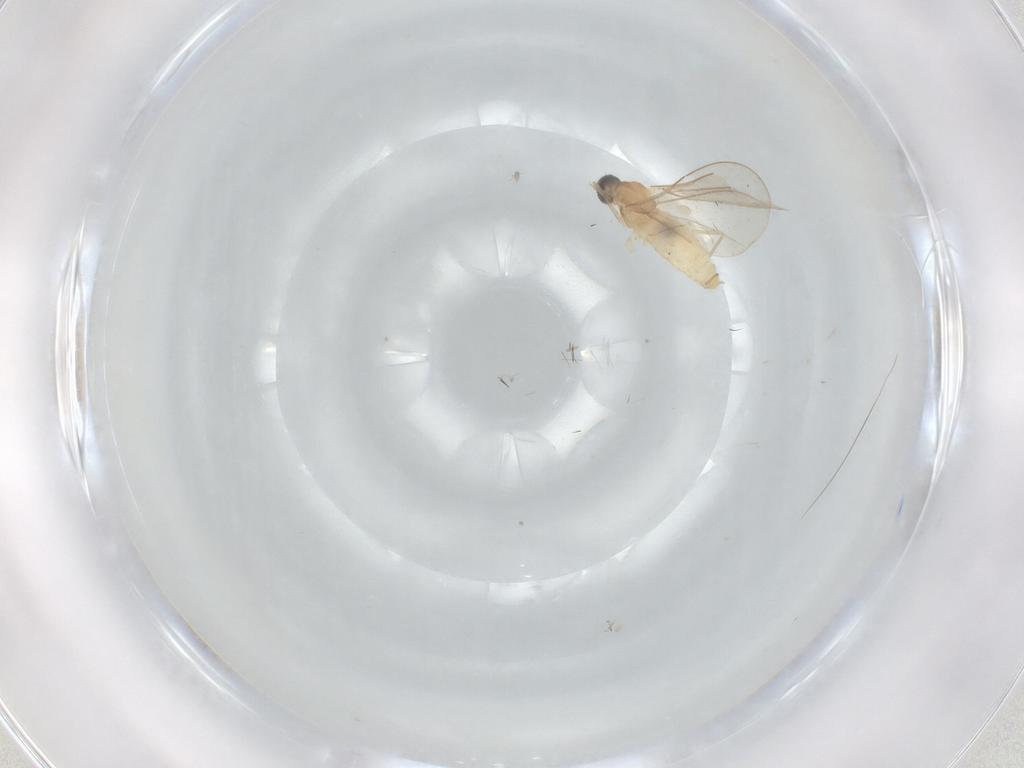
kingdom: Animalia
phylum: Arthropoda
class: Insecta
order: Diptera
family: Cecidomyiidae
